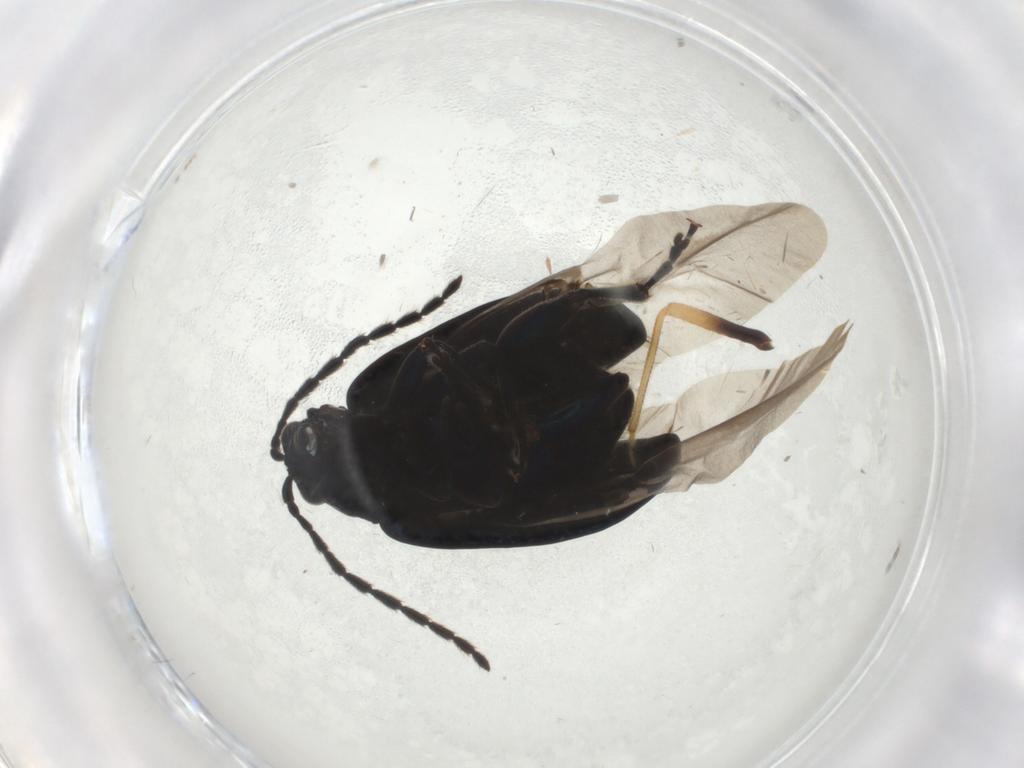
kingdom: Animalia
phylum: Arthropoda
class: Insecta
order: Coleoptera
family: Chrysomelidae
